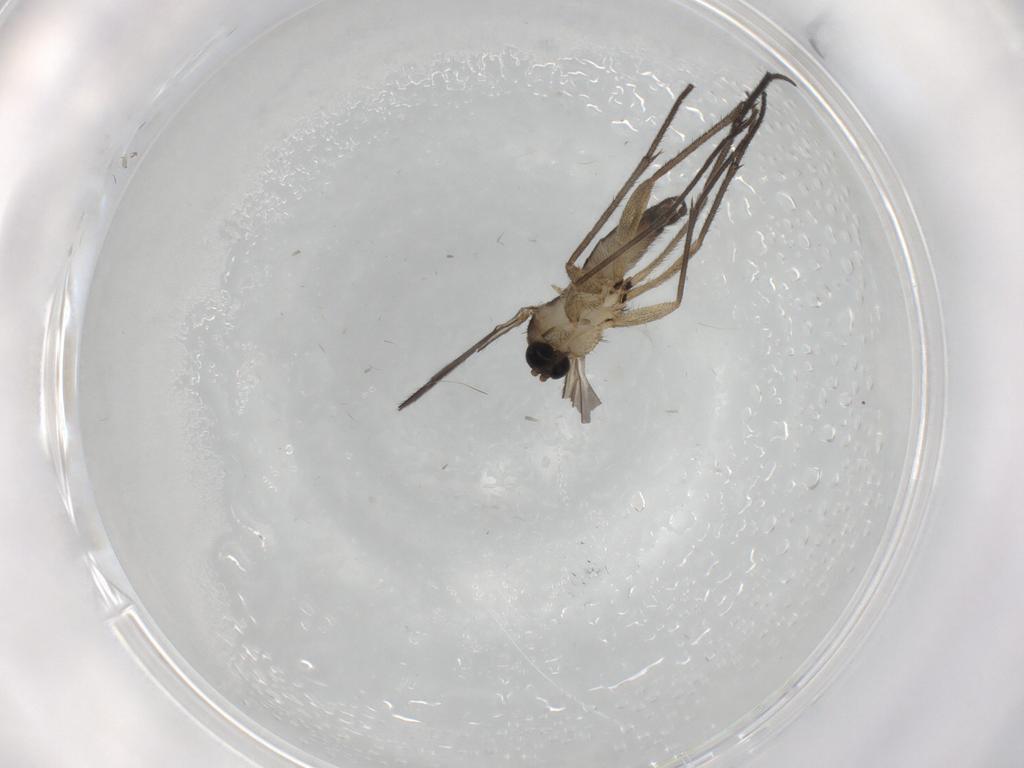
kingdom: Animalia
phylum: Arthropoda
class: Insecta
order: Diptera
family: Sciaridae
